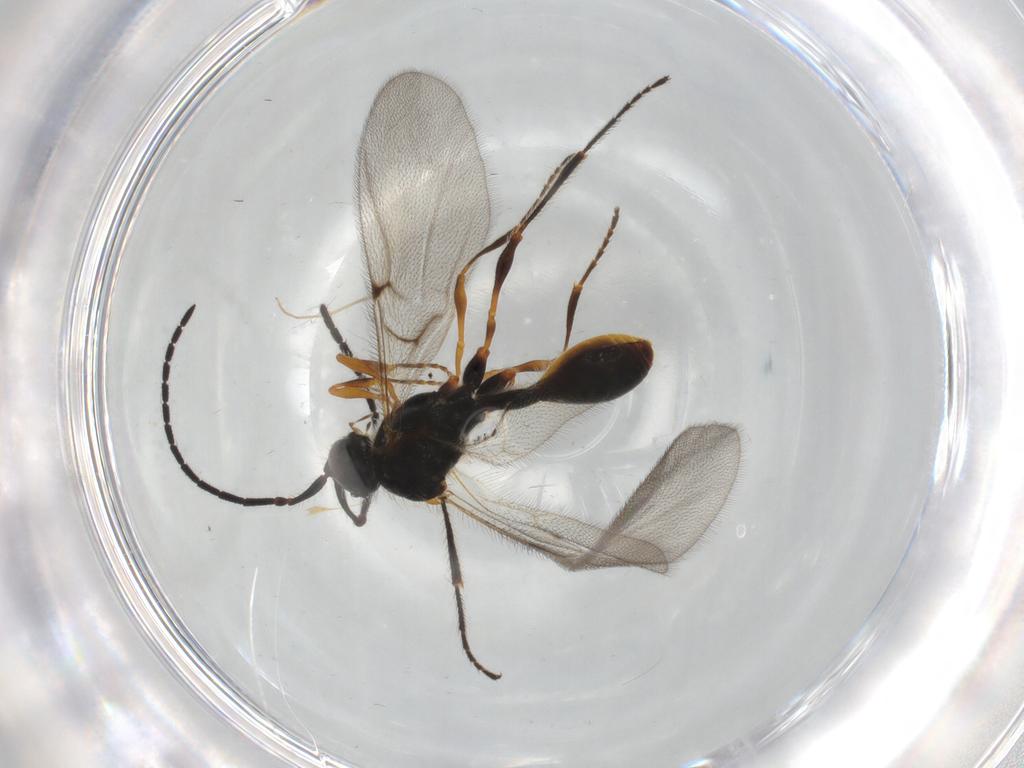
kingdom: Animalia
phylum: Arthropoda
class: Insecta
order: Hymenoptera
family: Diapriidae
